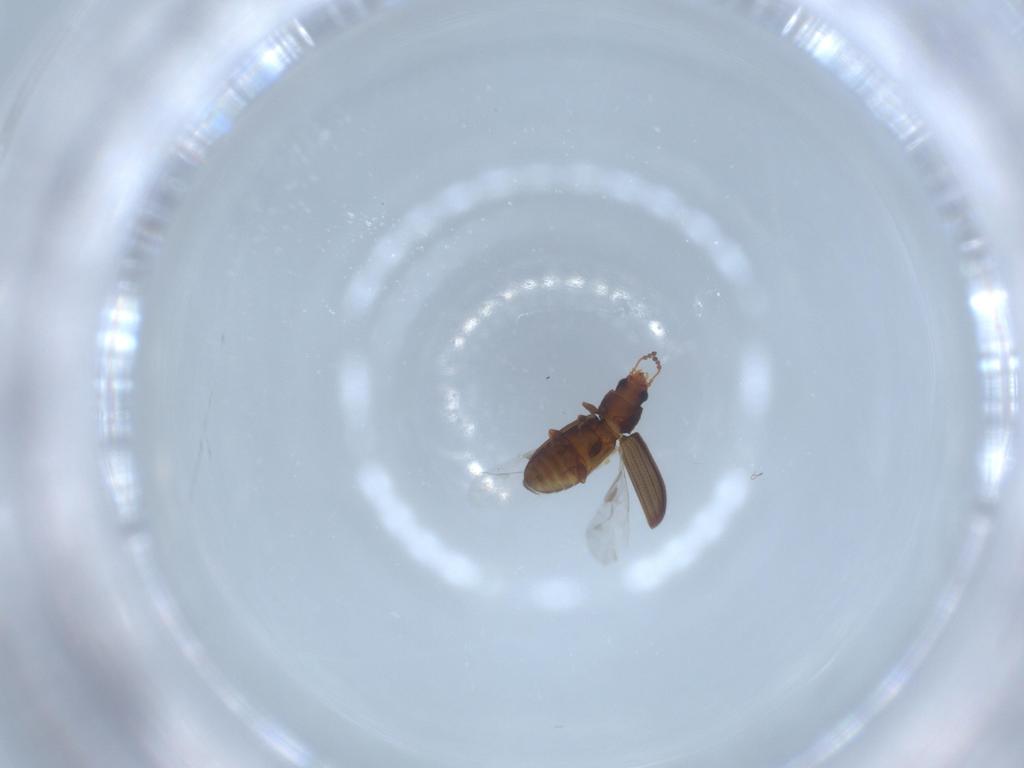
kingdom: Animalia
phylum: Arthropoda
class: Insecta
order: Coleoptera
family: Laemophloeidae
